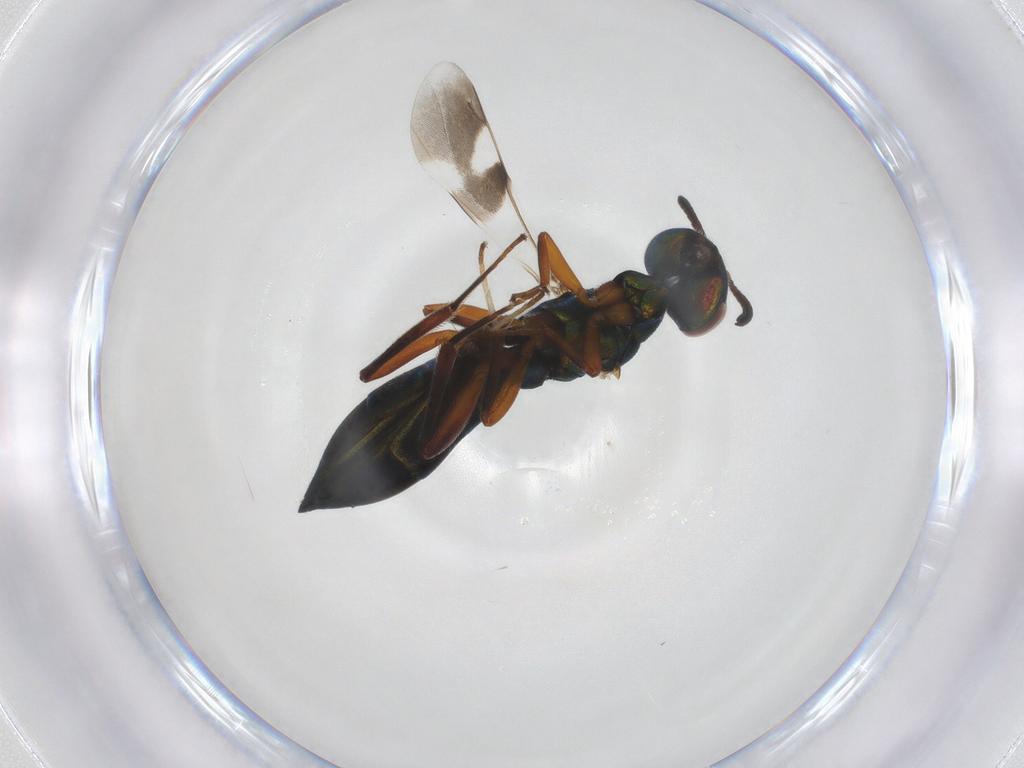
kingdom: Animalia
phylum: Arthropoda
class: Insecta
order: Hymenoptera
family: Cleonyminae
